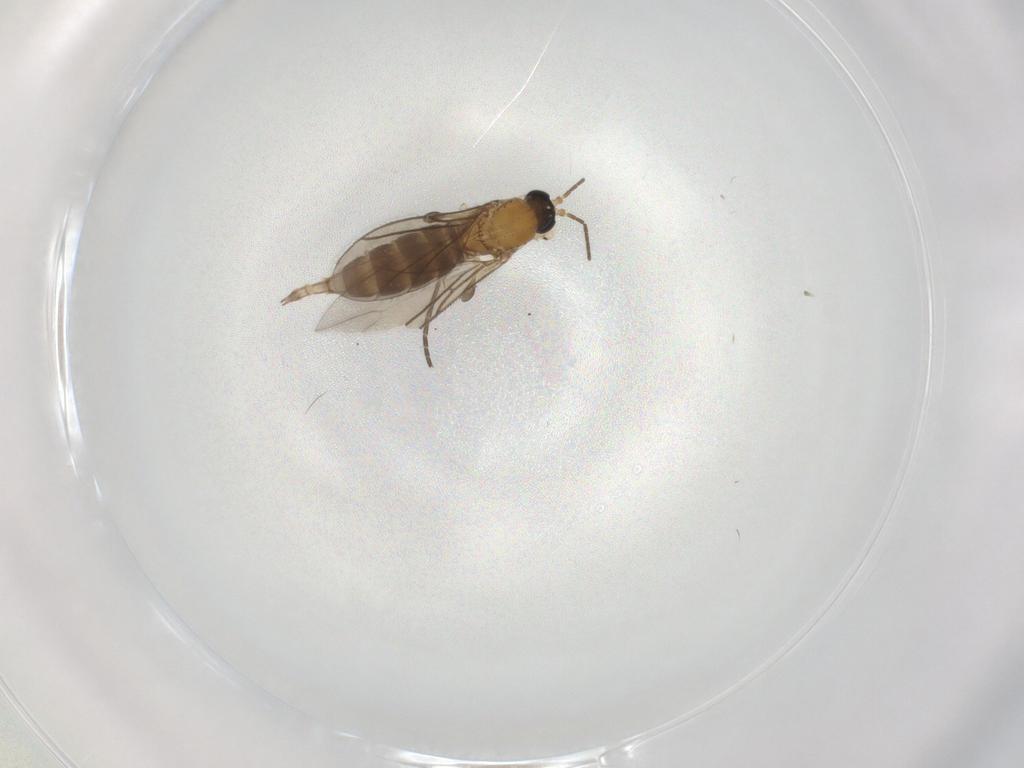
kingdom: Animalia
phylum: Arthropoda
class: Insecta
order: Diptera
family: Sciaridae
